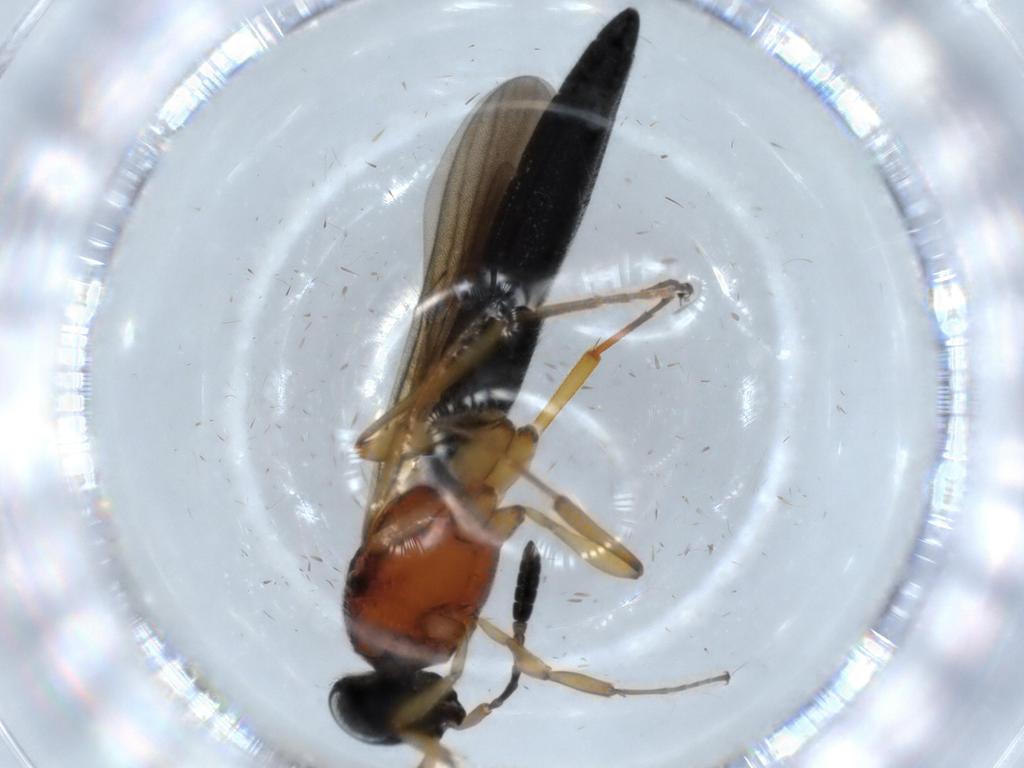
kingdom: Animalia
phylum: Arthropoda
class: Insecta
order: Hymenoptera
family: Scelionidae
